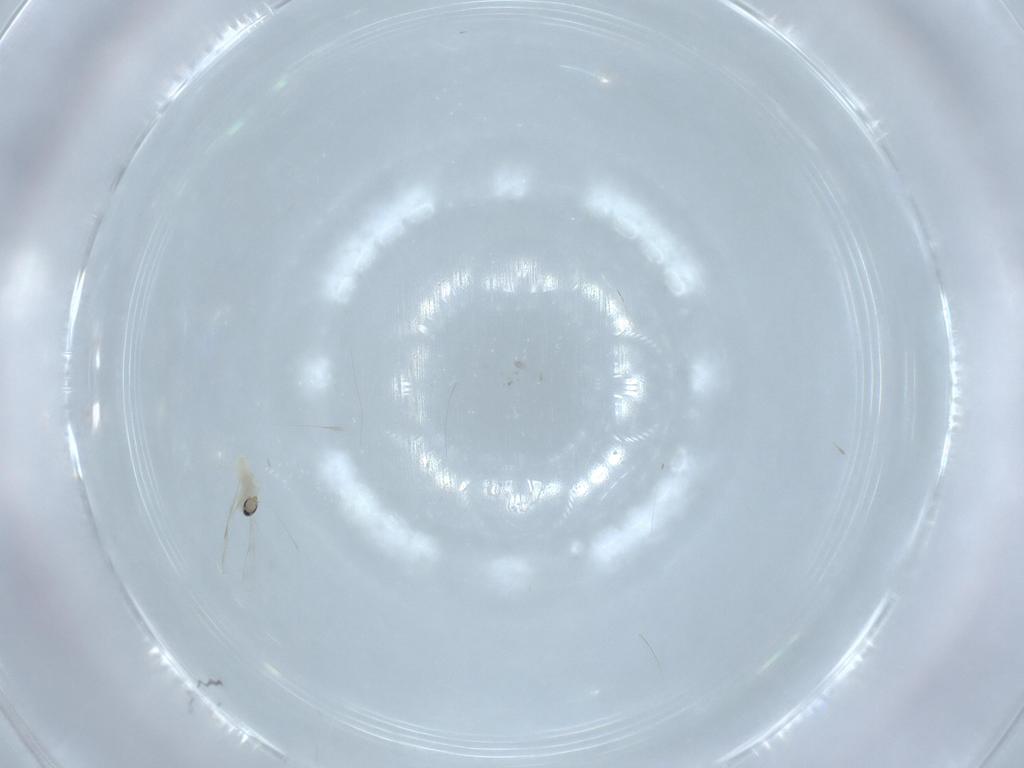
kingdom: Animalia
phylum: Arthropoda
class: Insecta
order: Diptera
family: Cecidomyiidae
